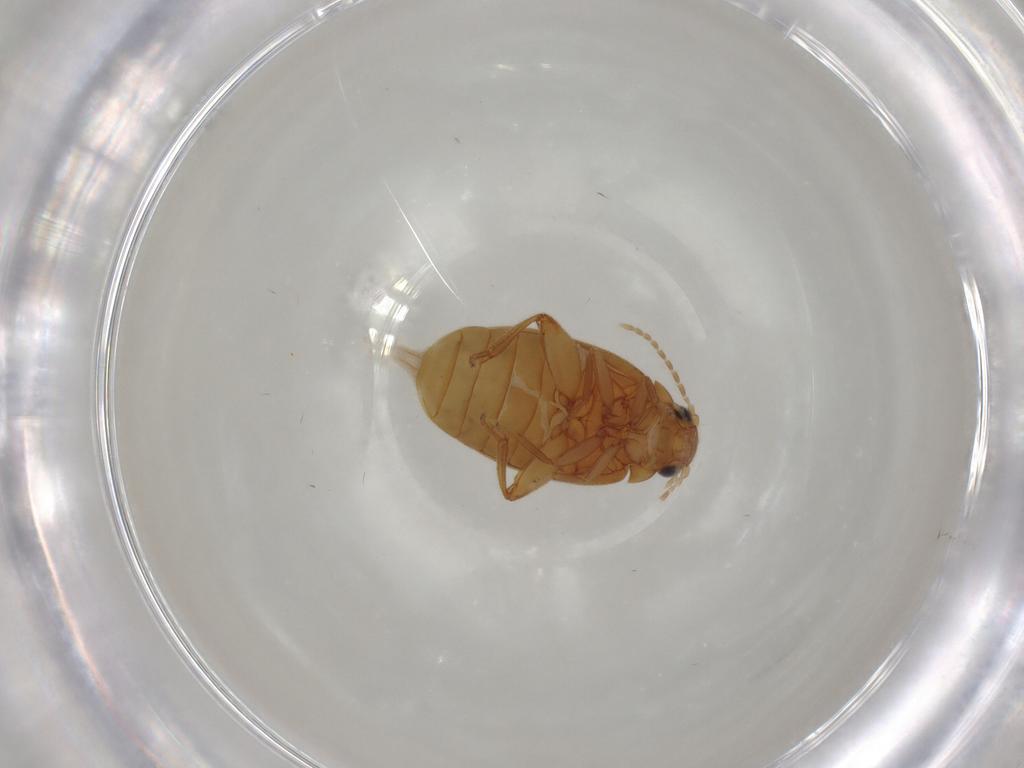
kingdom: Animalia
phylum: Arthropoda
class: Insecta
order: Coleoptera
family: Scirtidae
